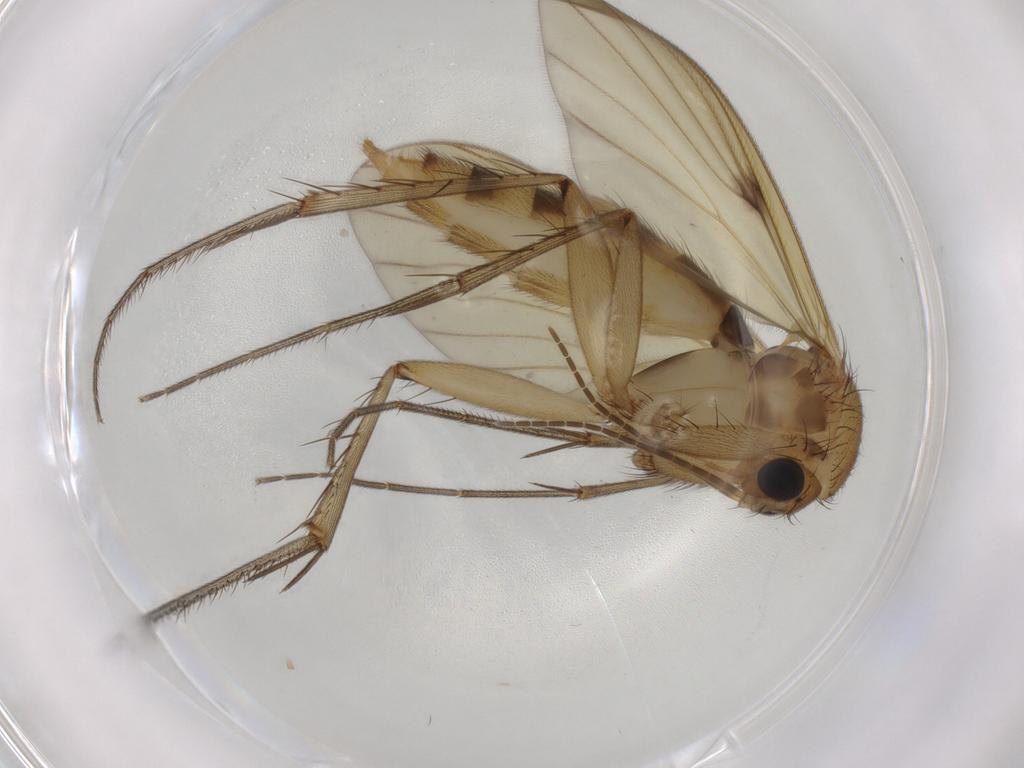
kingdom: Animalia
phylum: Arthropoda
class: Insecta
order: Diptera
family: Mycetophilidae
